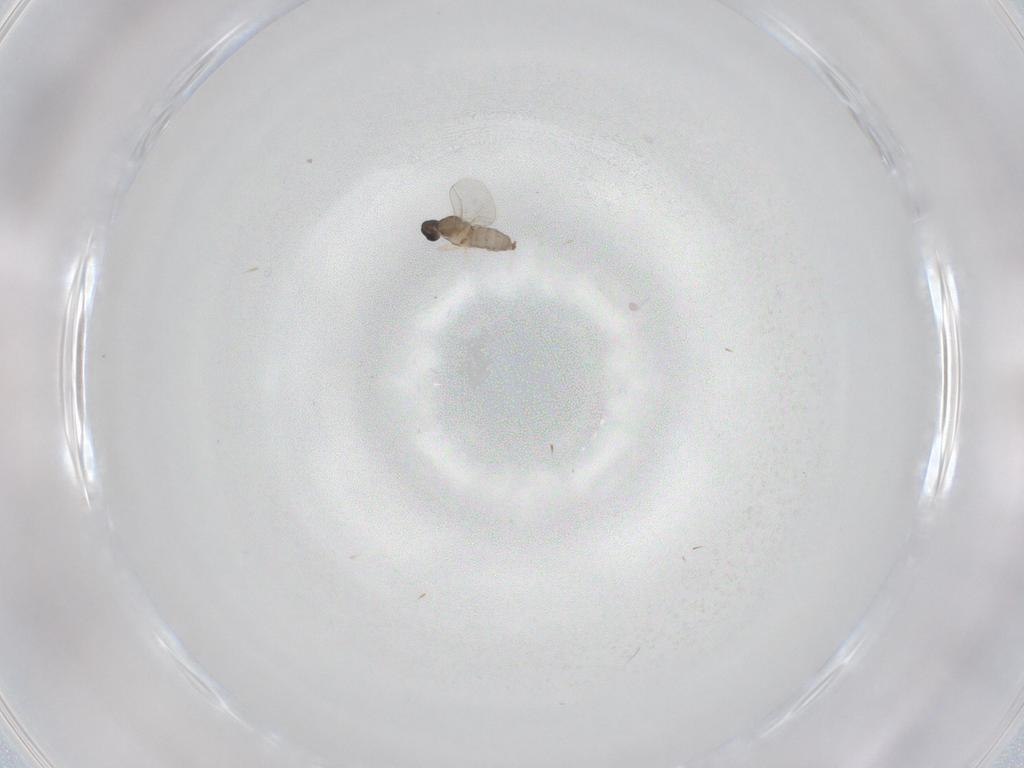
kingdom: Animalia
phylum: Arthropoda
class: Insecta
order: Diptera
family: Cecidomyiidae
